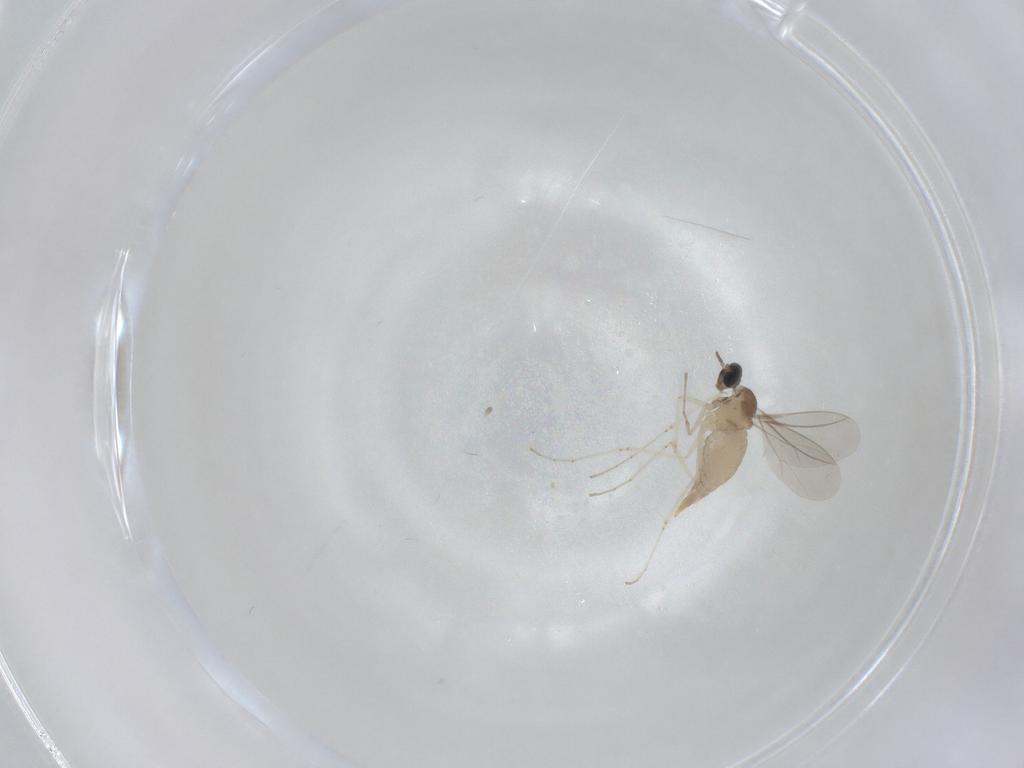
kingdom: Animalia
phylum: Arthropoda
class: Insecta
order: Diptera
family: Cecidomyiidae
